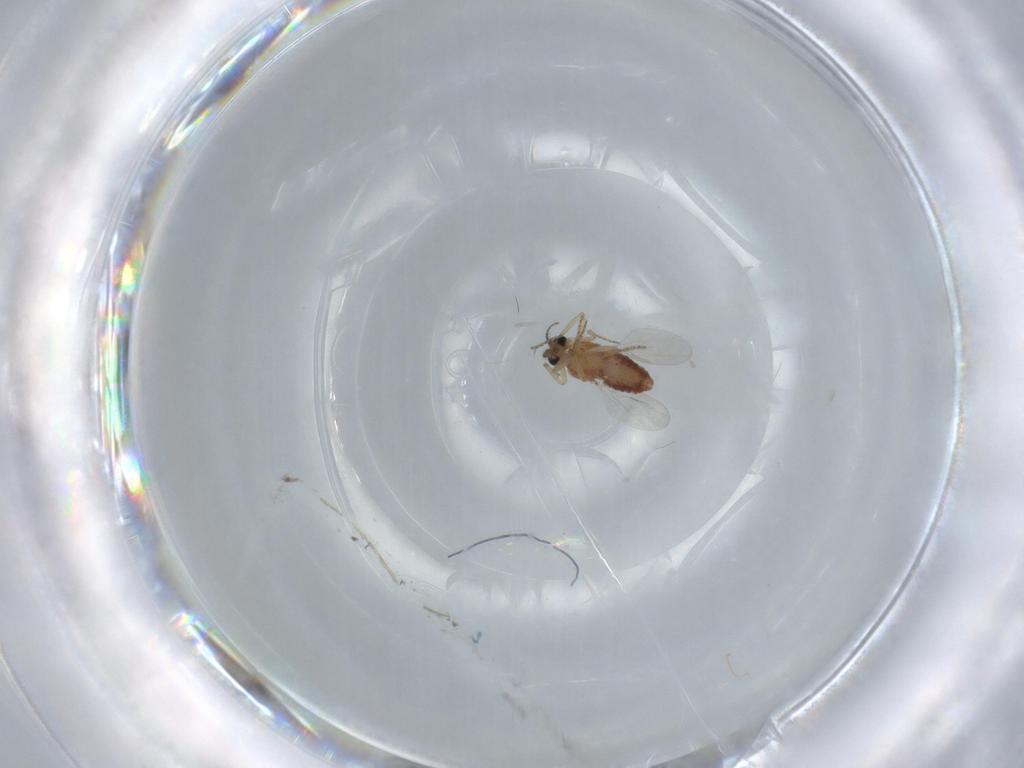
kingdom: Animalia
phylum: Arthropoda
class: Insecta
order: Diptera
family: Ceratopogonidae
